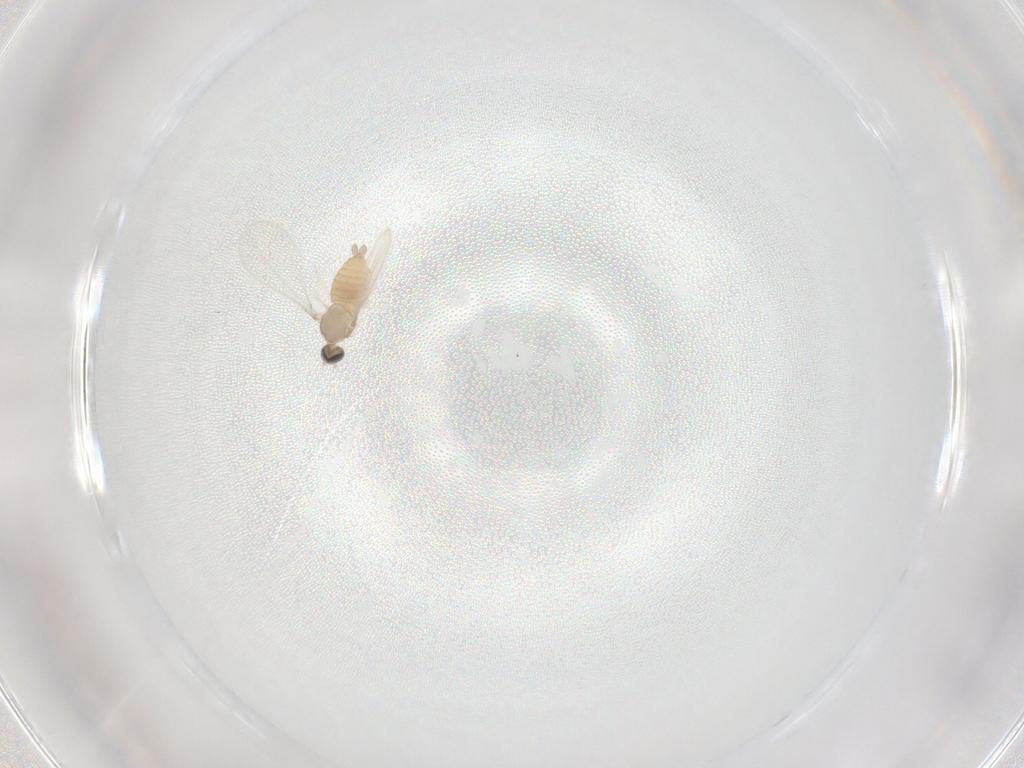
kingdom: Animalia
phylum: Arthropoda
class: Insecta
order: Diptera
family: Cecidomyiidae
